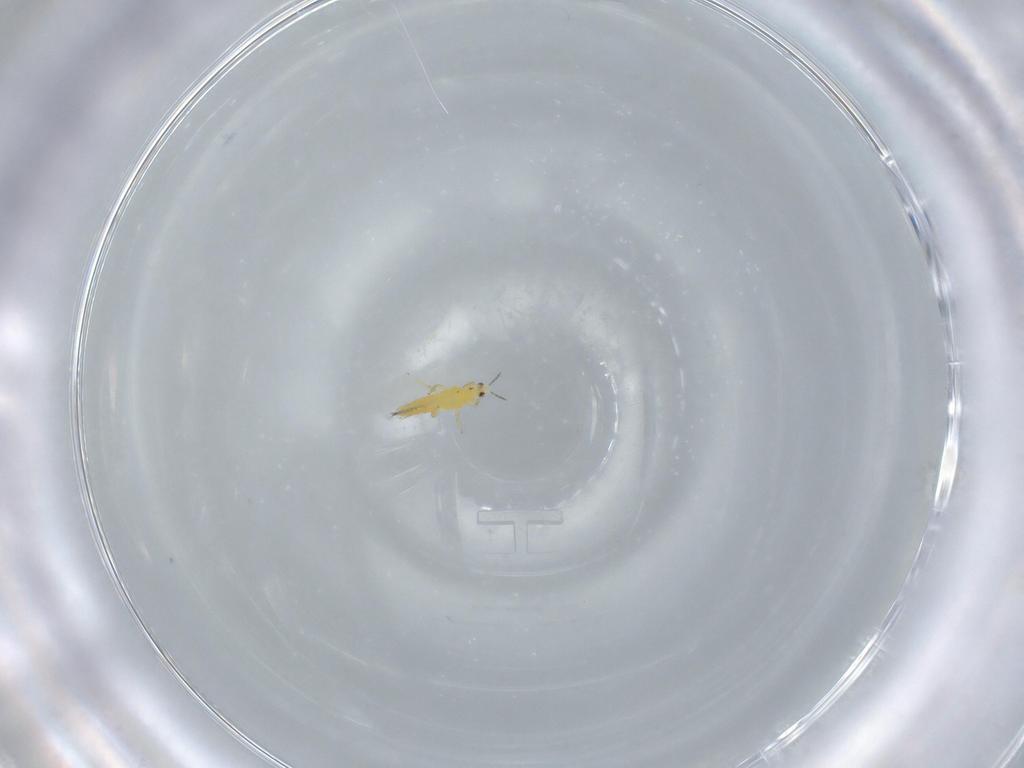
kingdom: Animalia
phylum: Arthropoda
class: Insecta
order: Thysanoptera
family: Thripidae
